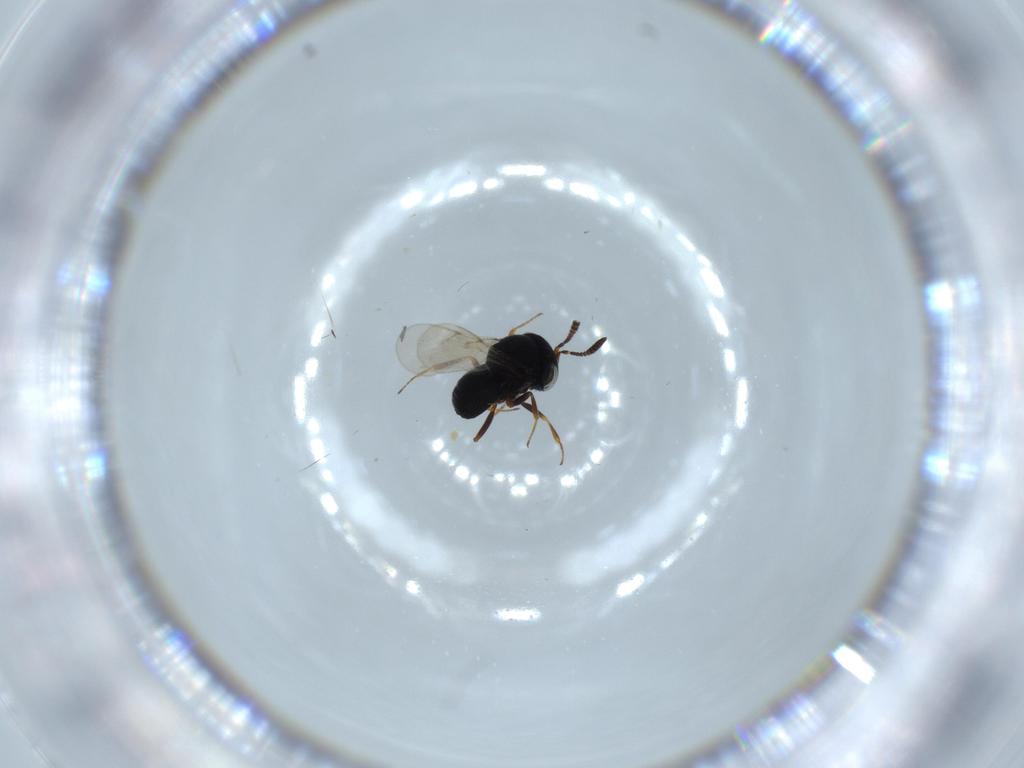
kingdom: Animalia
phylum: Arthropoda
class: Insecta
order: Hymenoptera
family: Scelionidae
